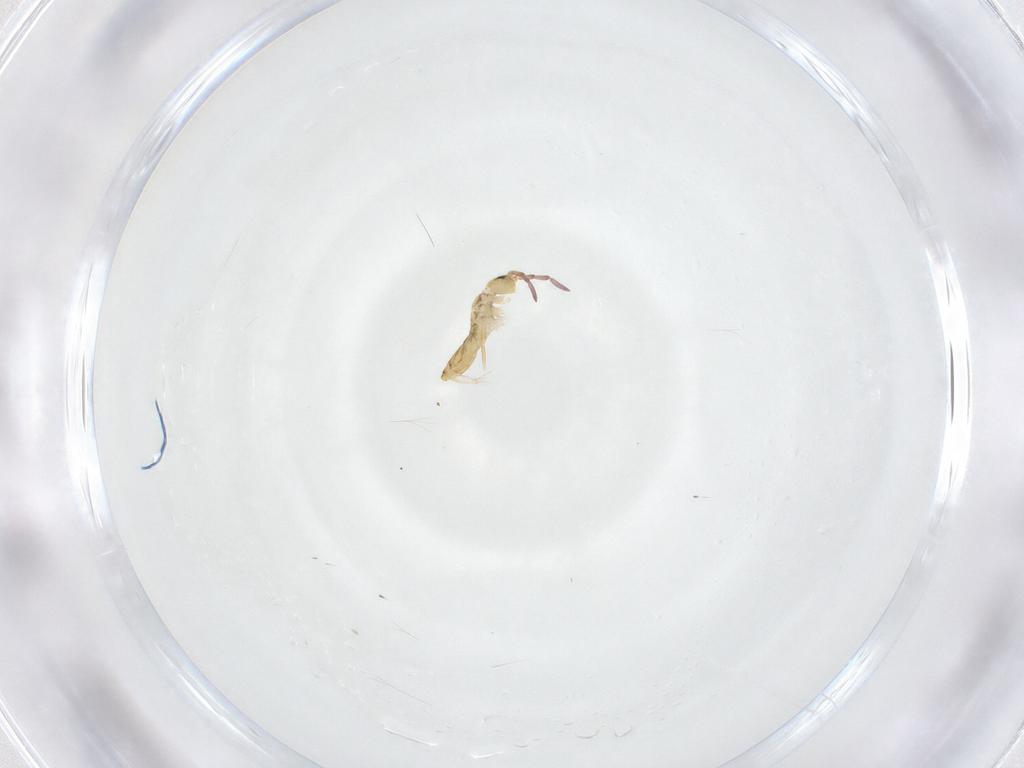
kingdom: Animalia
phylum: Arthropoda
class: Collembola
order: Entomobryomorpha
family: Entomobryidae
